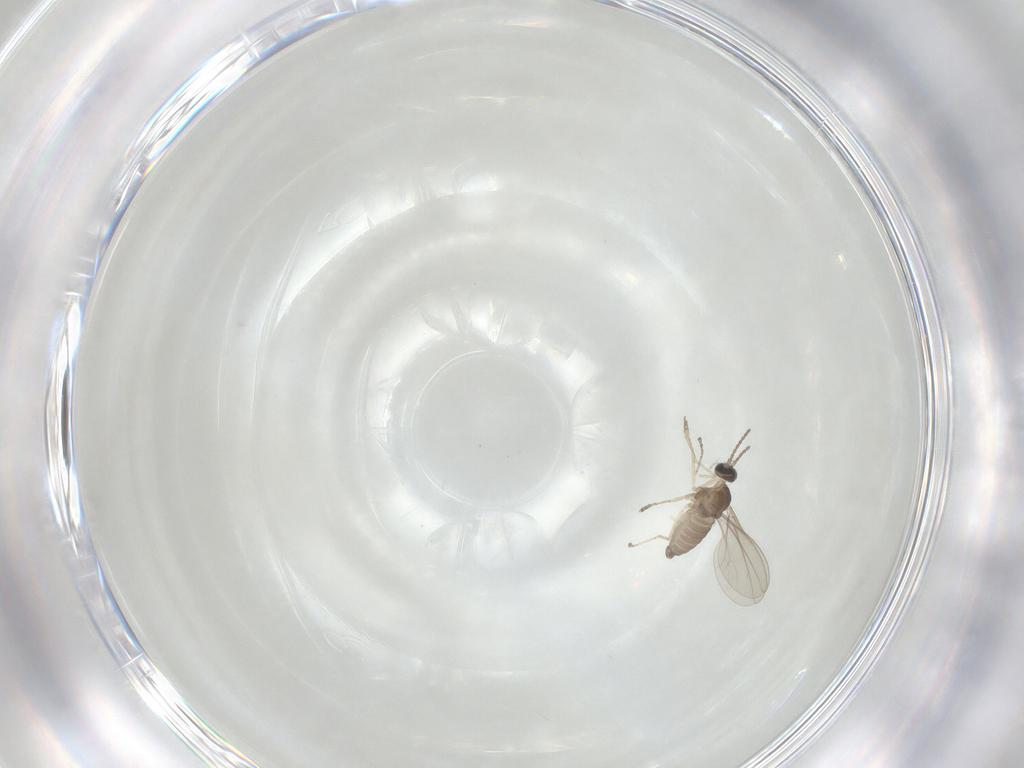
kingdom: Animalia
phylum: Arthropoda
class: Insecta
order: Diptera
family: Cecidomyiidae
